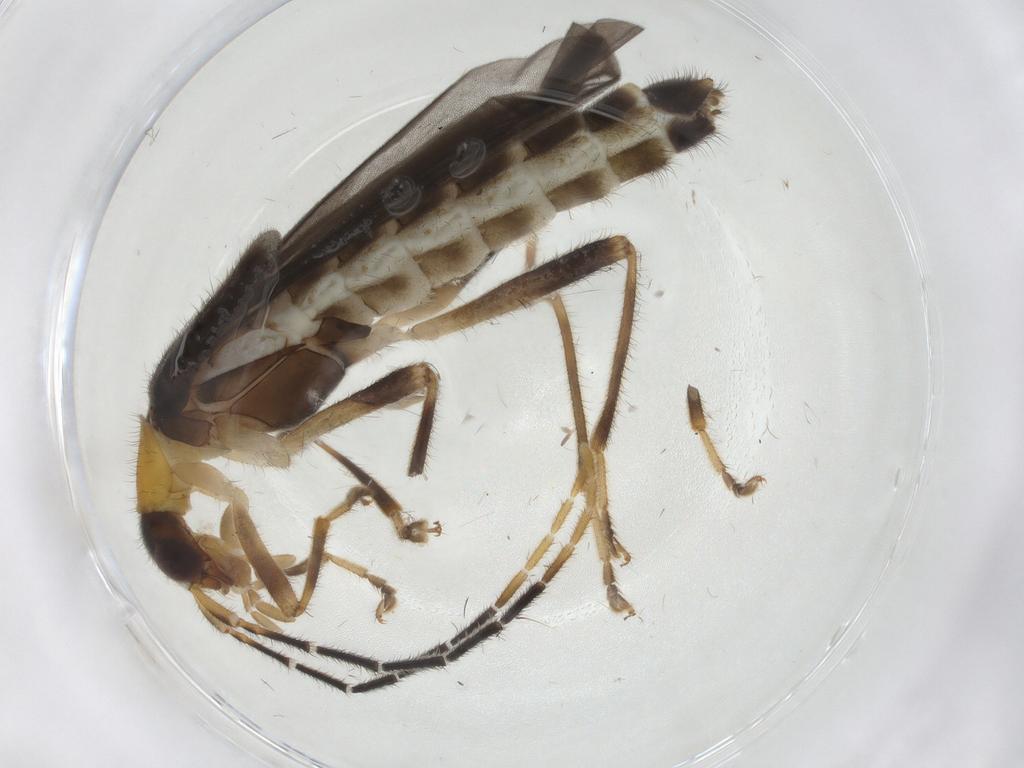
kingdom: Animalia
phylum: Arthropoda
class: Insecta
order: Coleoptera
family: Cantharidae
